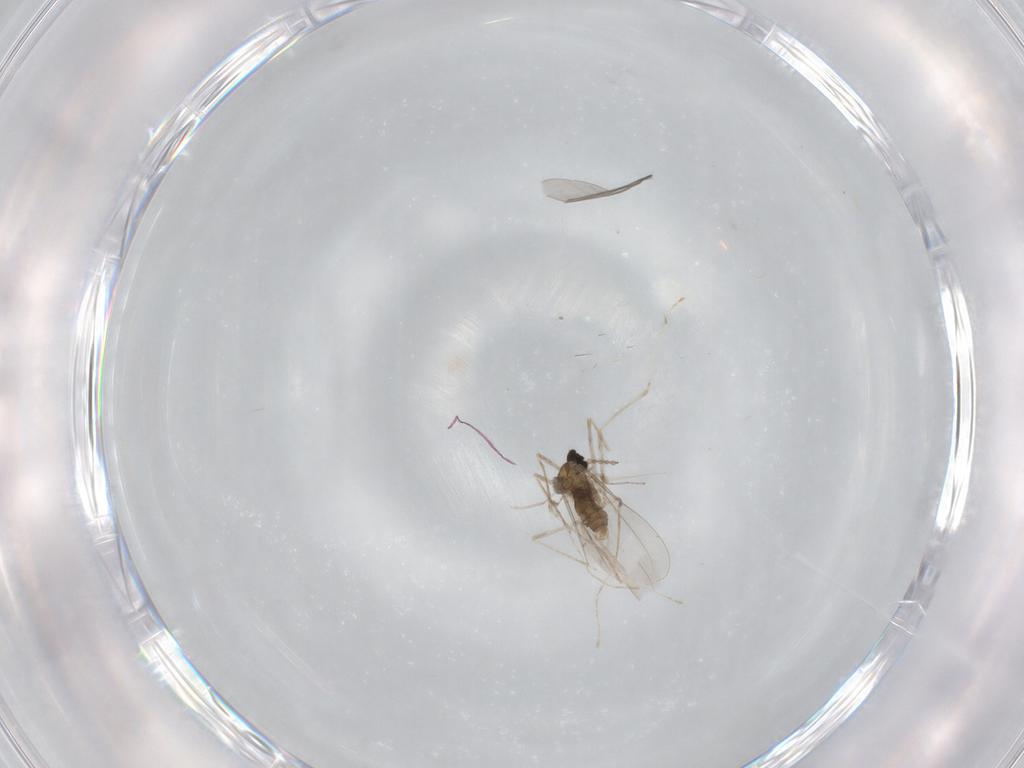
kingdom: Animalia
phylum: Arthropoda
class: Insecta
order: Diptera
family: Cecidomyiidae
